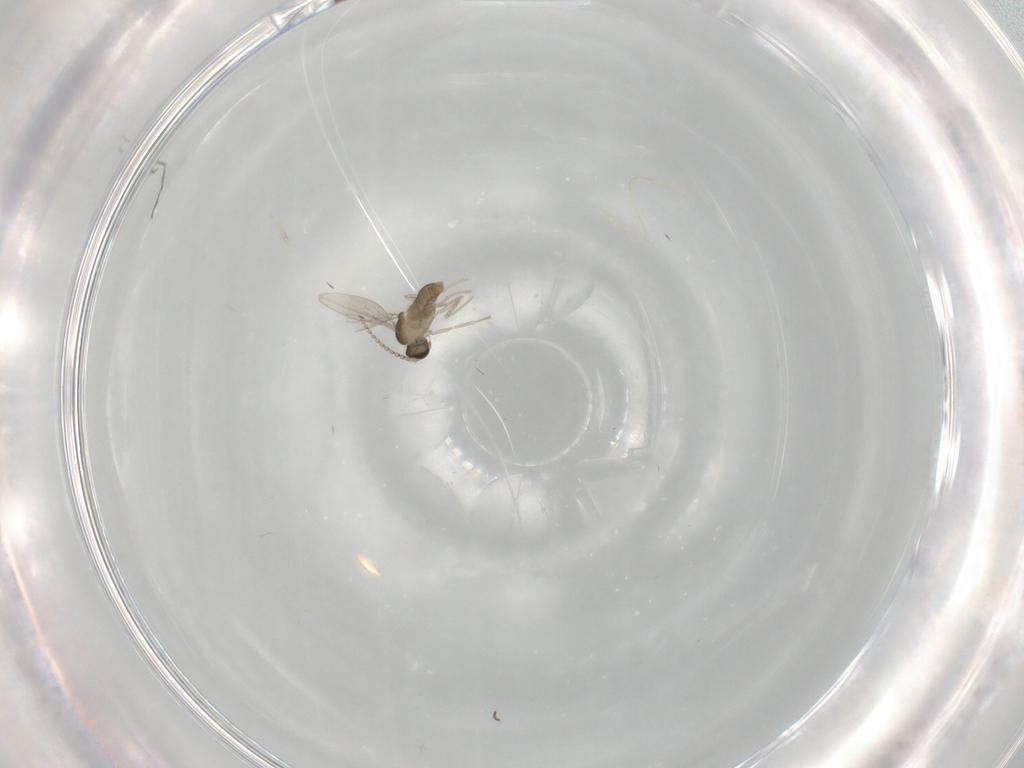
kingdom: Animalia
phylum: Arthropoda
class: Insecta
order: Diptera
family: Cecidomyiidae
